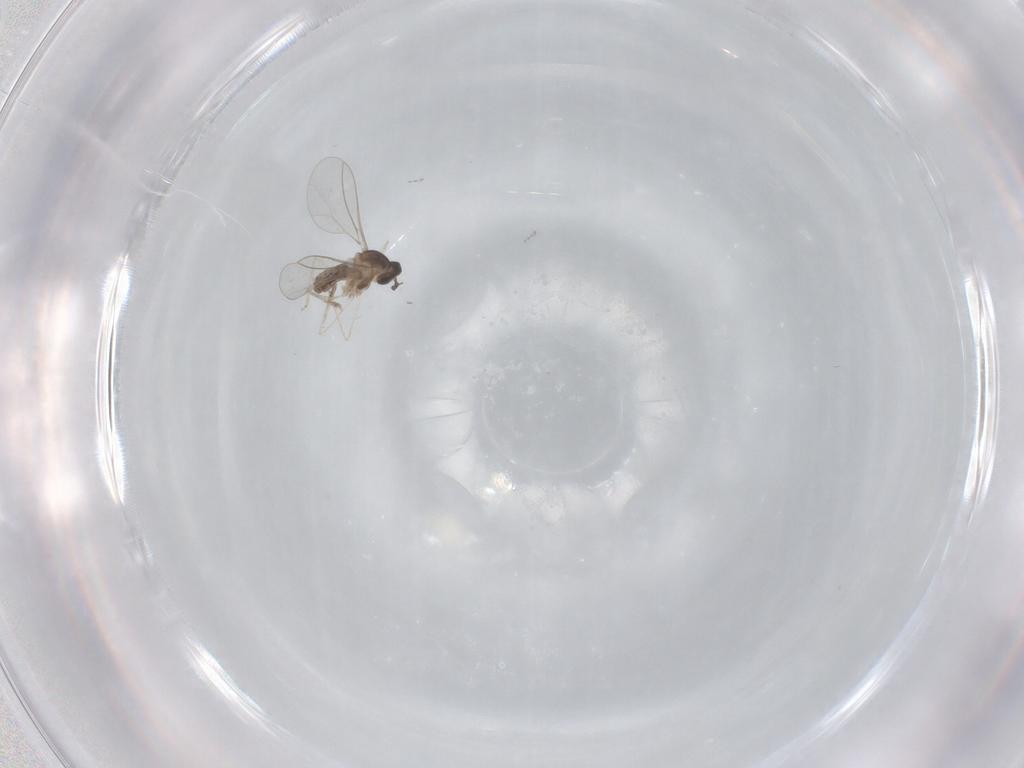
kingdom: Animalia
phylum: Arthropoda
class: Insecta
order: Diptera
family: Cecidomyiidae
